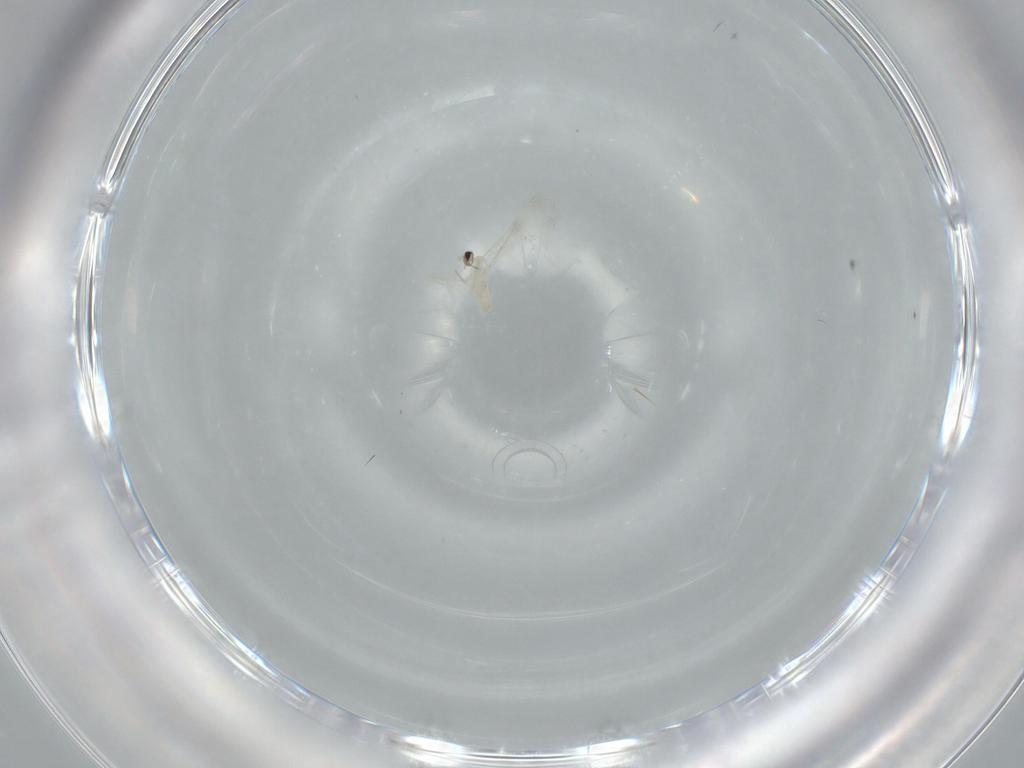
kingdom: Animalia
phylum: Arthropoda
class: Insecta
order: Diptera
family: Cecidomyiidae
